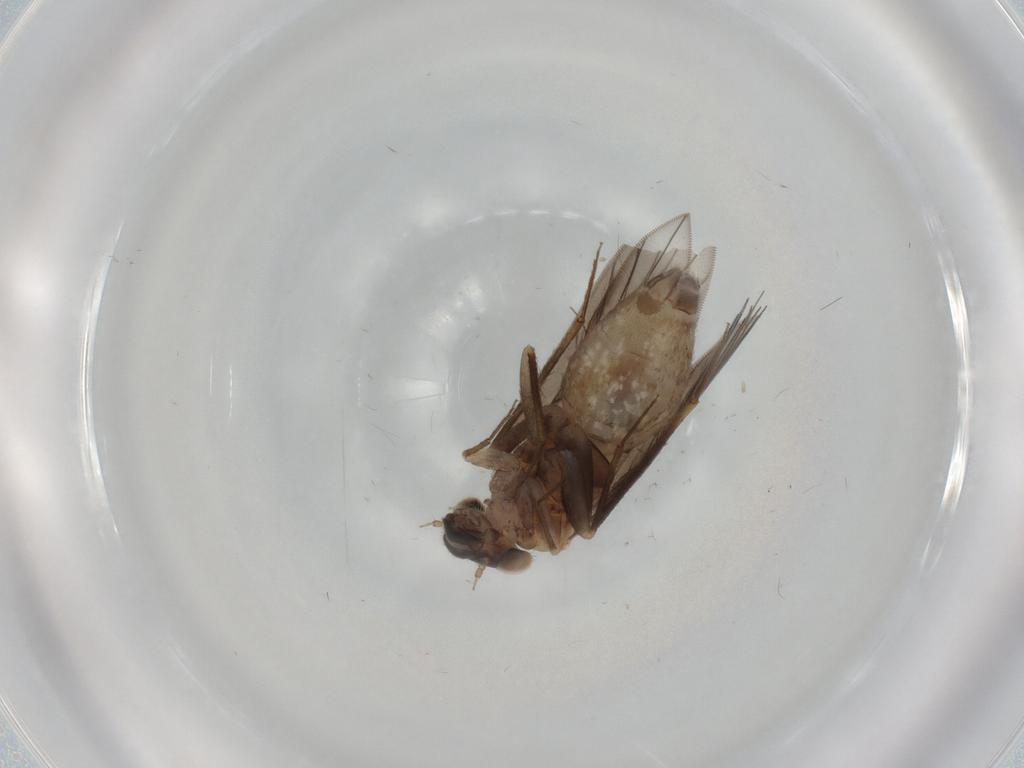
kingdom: Animalia
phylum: Arthropoda
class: Insecta
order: Psocodea
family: Lepidopsocidae
